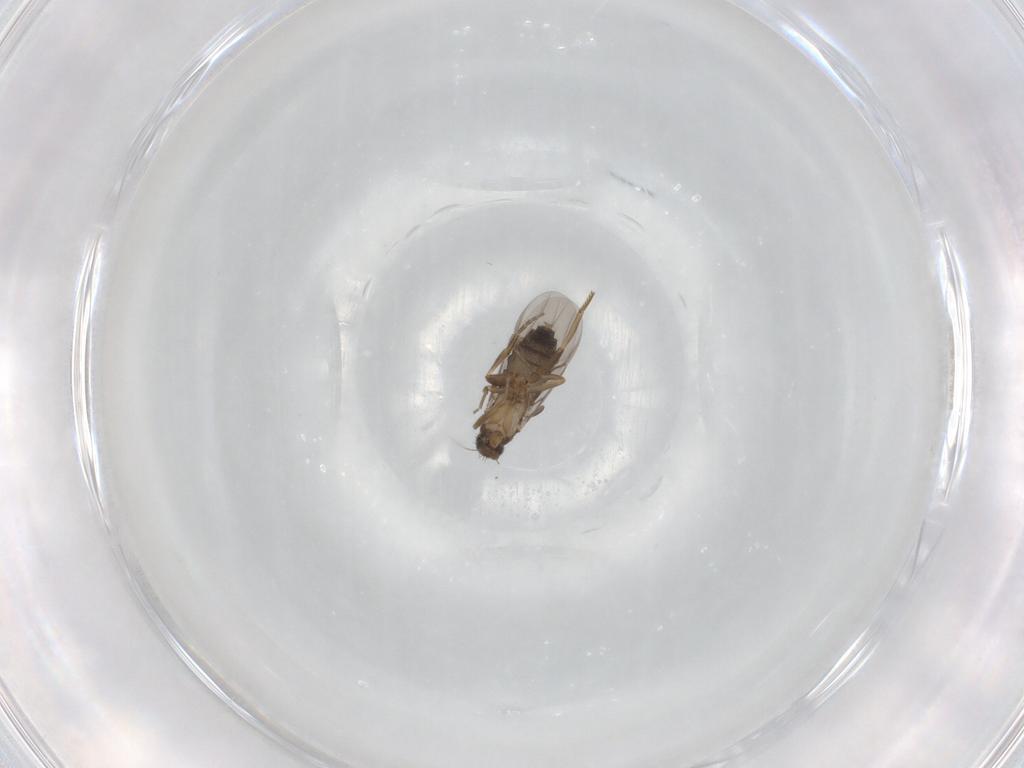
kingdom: Animalia
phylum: Arthropoda
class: Insecta
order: Diptera
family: Phoridae
